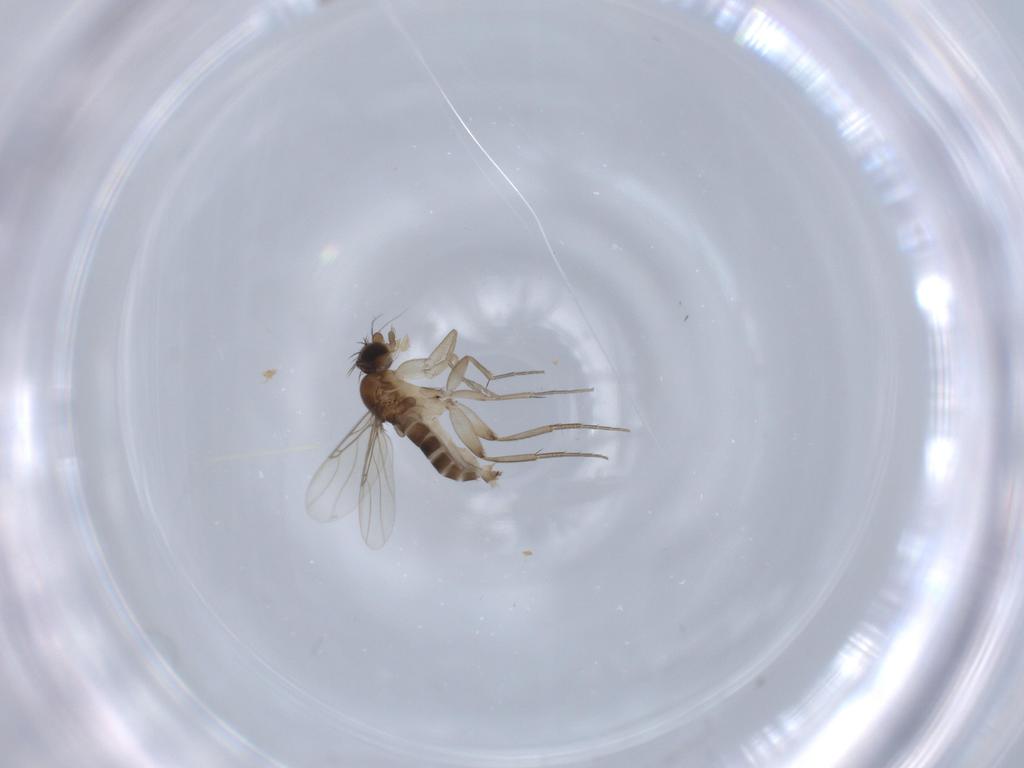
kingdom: Animalia
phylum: Arthropoda
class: Insecta
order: Diptera
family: Phoridae
